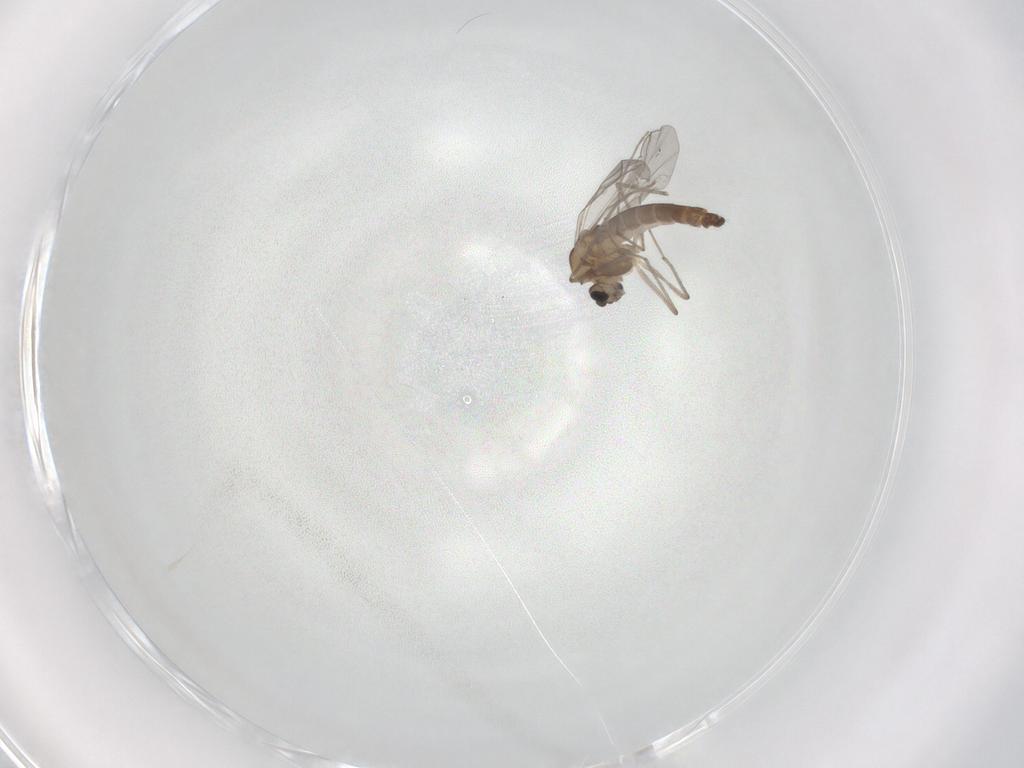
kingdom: Animalia
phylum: Arthropoda
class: Insecta
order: Diptera
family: Chironomidae
